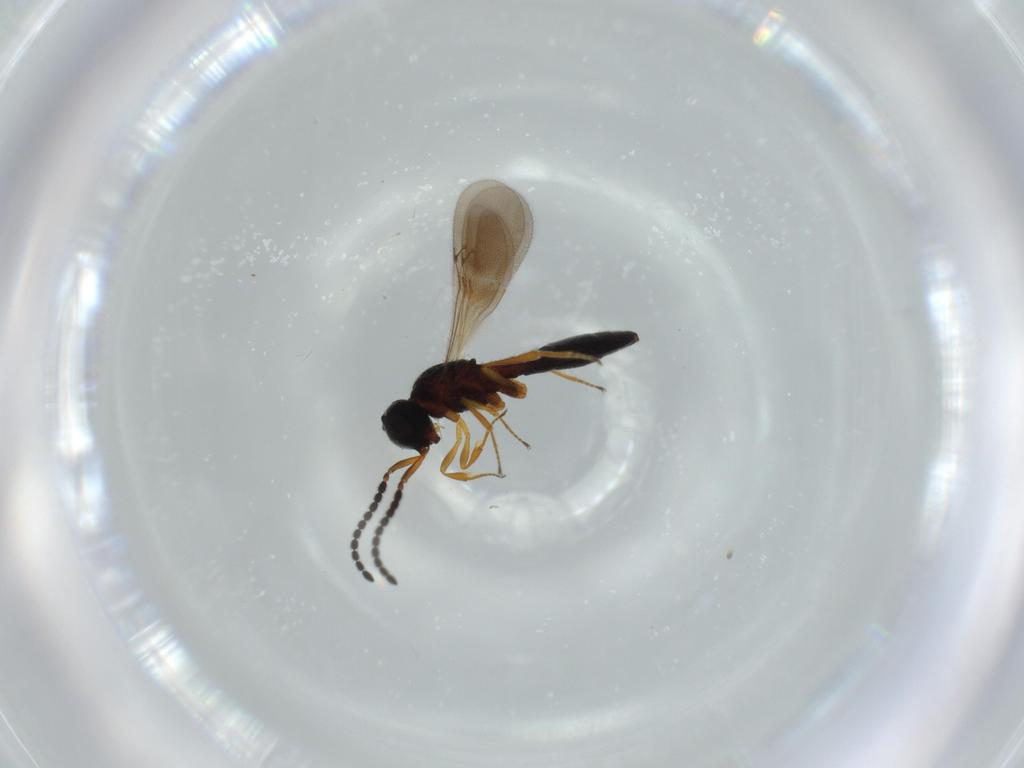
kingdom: Animalia
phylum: Arthropoda
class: Insecta
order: Hymenoptera
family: Scelionidae
